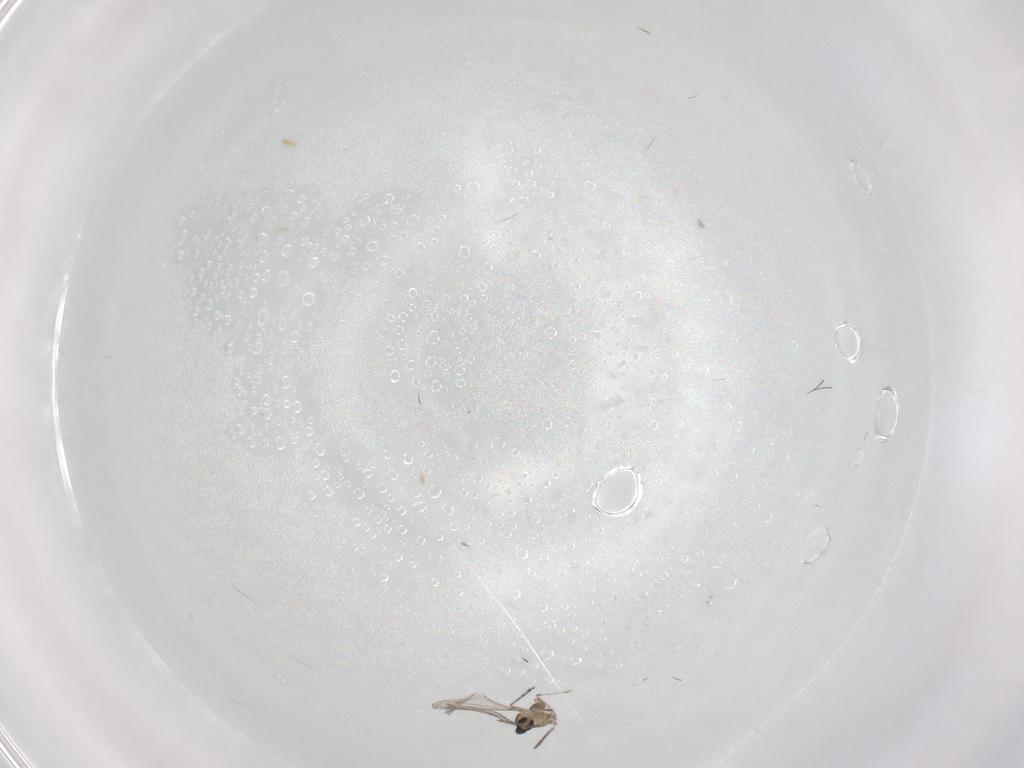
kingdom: Animalia
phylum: Arthropoda
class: Insecta
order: Diptera
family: Cecidomyiidae
